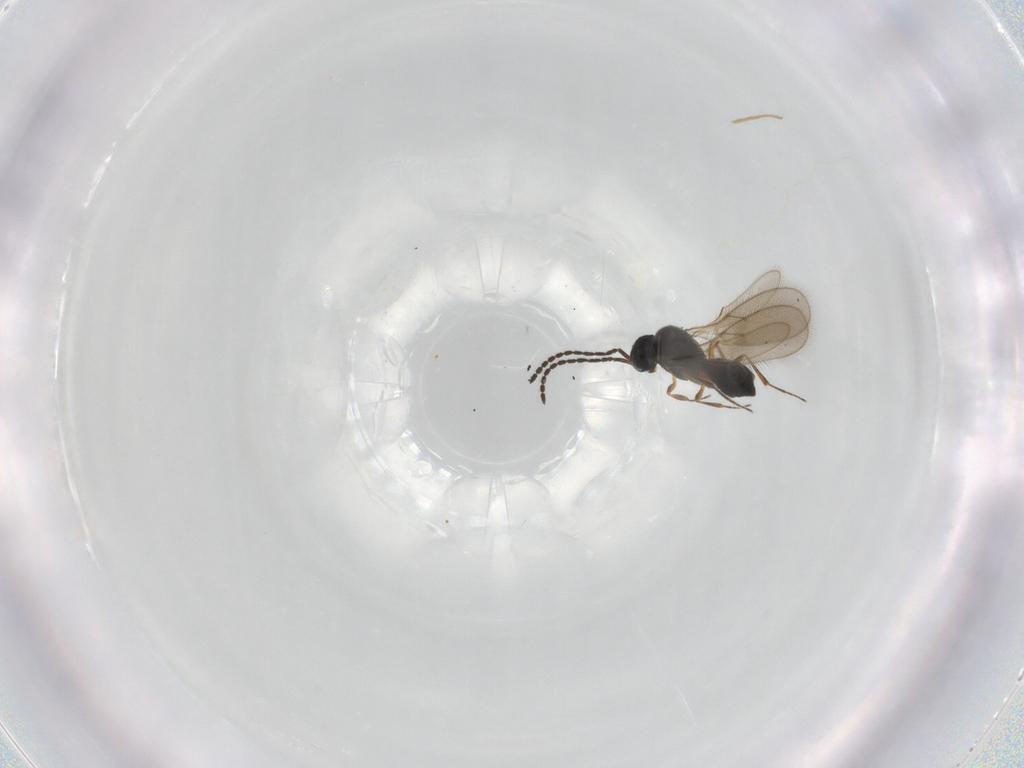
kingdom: Animalia
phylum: Arthropoda
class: Insecta
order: Hymenoptera
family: Scelionidae
